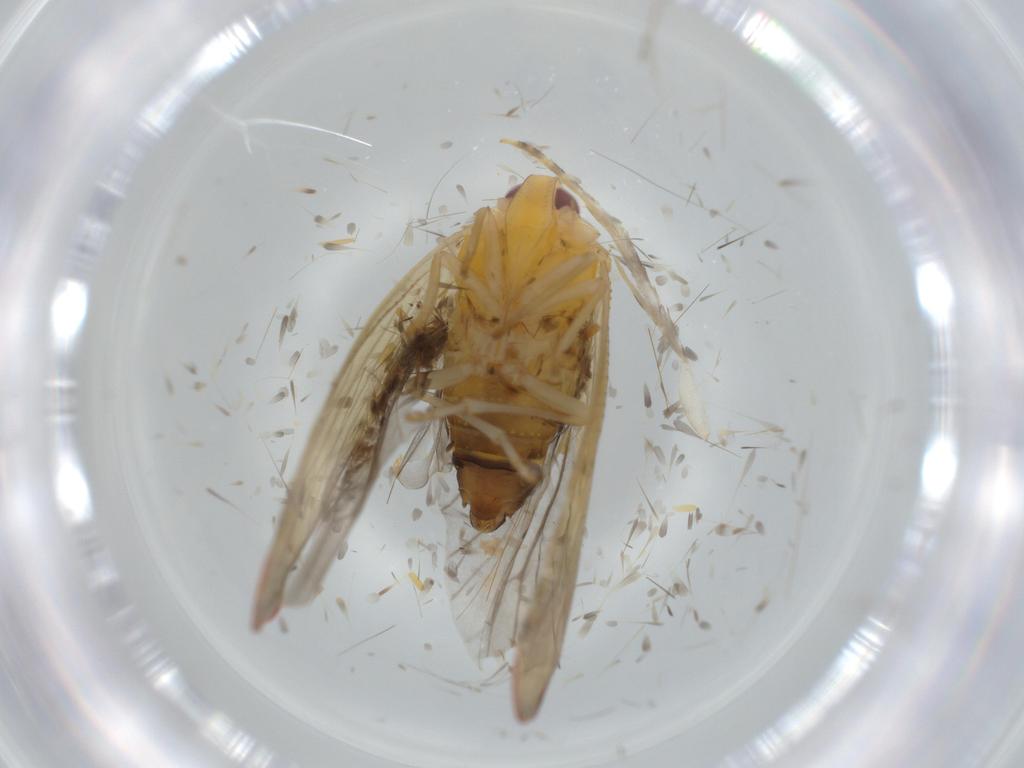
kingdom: Animalia
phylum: Arthropoda
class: Insecta
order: Hemiptera
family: Derbidae
